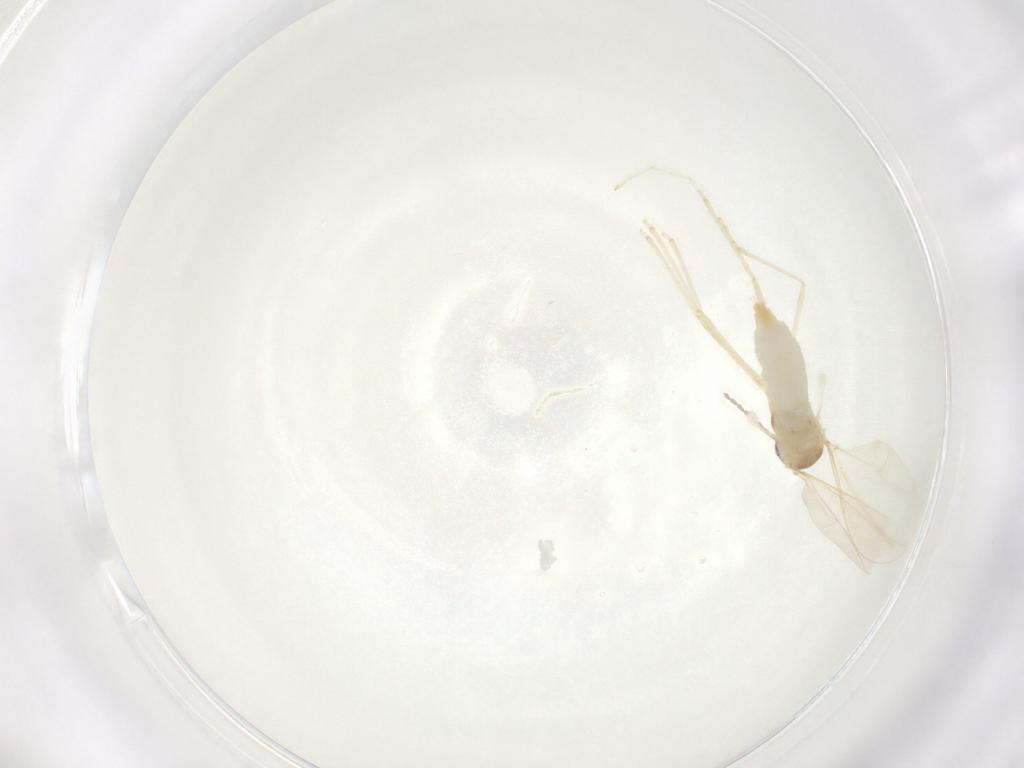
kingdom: Animalia
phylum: Arthropoda
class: Insecta
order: Diptera
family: Cecidomyiidae
